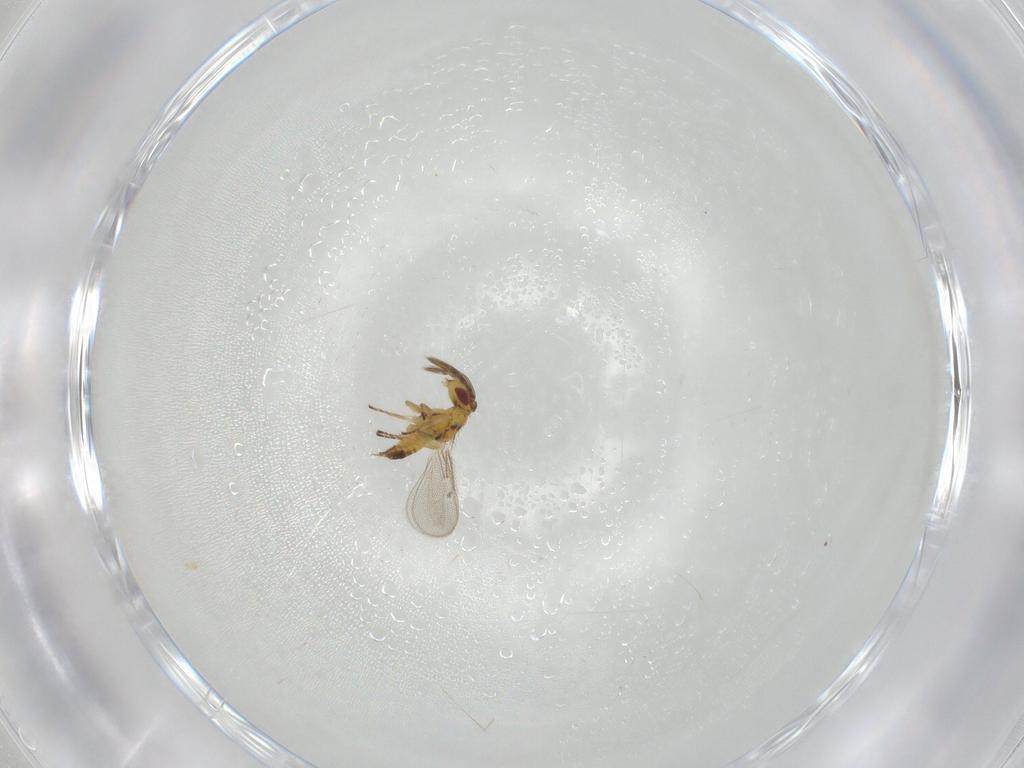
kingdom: Animalia
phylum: Arthropoda
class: Insecta
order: Hymenoptera
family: Eulophidae
